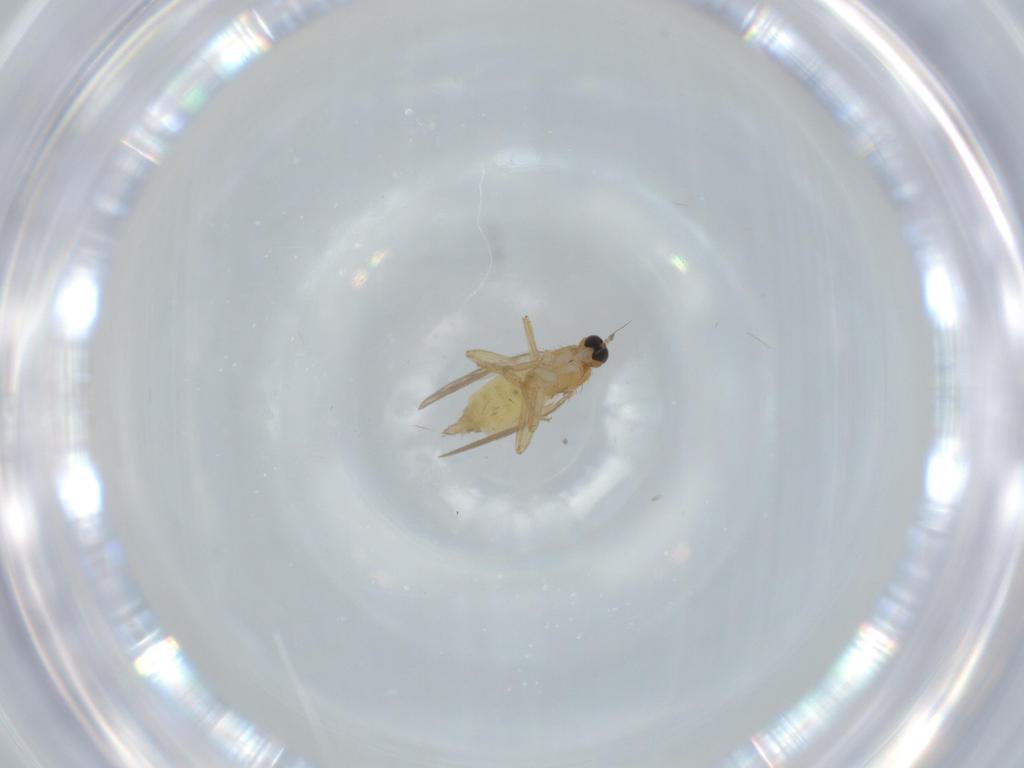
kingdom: Animalia
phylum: Arthropoda
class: Insecta
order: Diptera
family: Hybotidae
